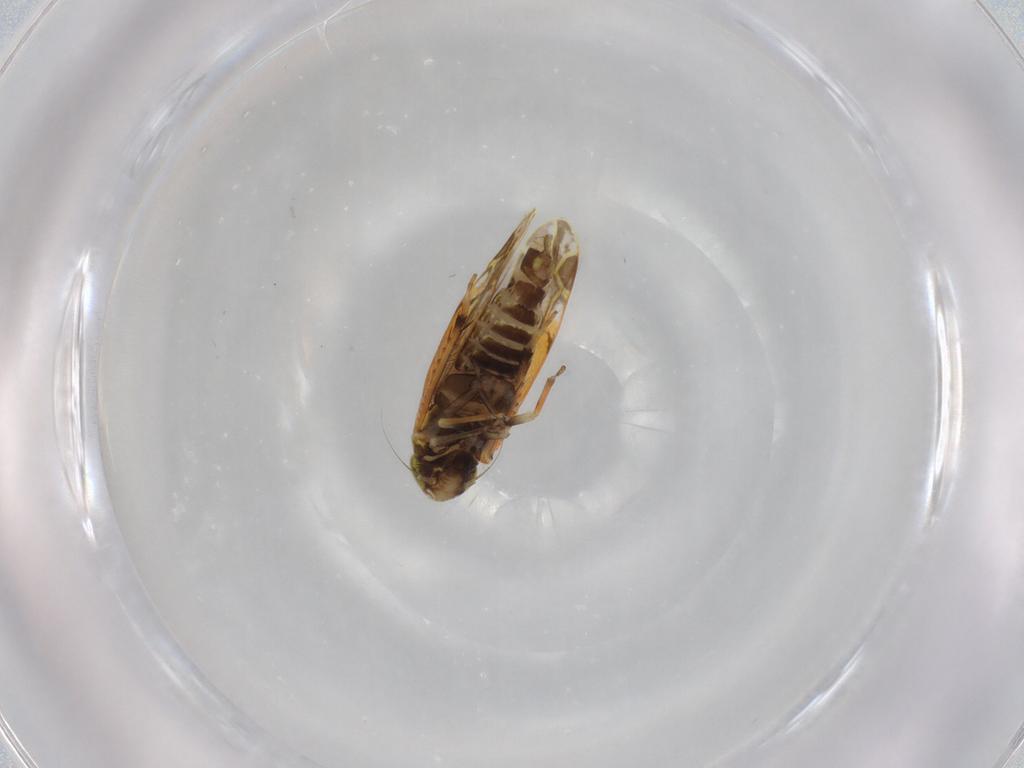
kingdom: Animalia
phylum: Arthropoda
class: Insecta
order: Hemiptera
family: Cicadellidae
